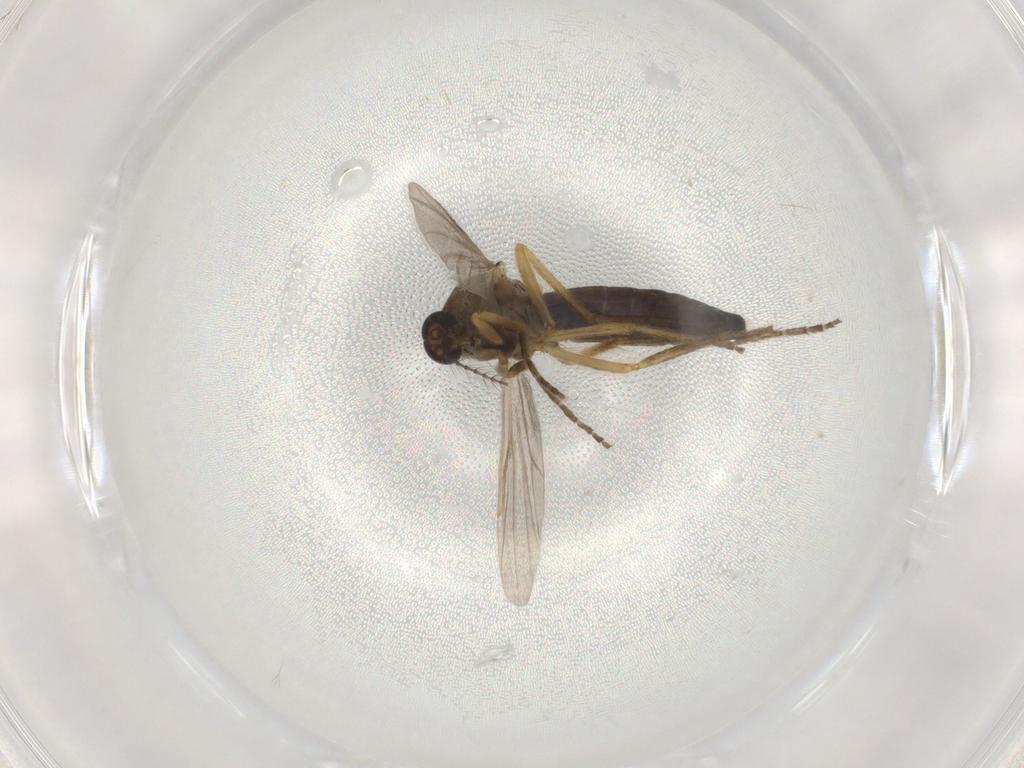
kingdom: Animalia
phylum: Arthropoda
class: Insecta
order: Diptera
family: Ceratopogonidae
